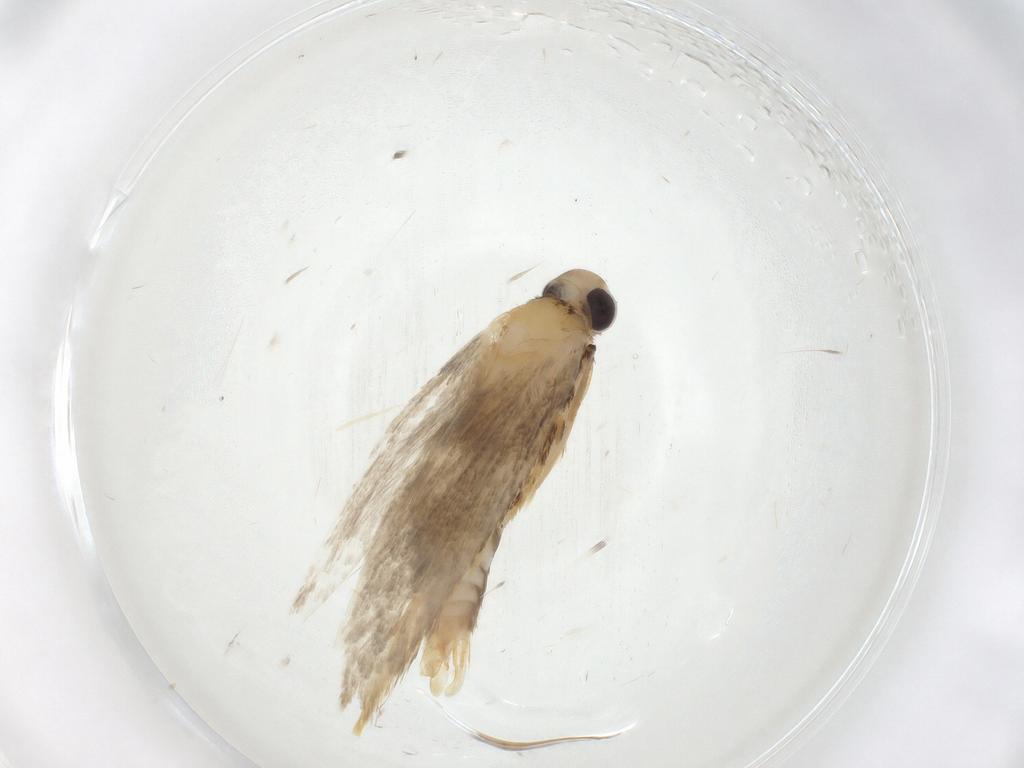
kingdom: Animalia
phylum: Arthropoda
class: Insecta
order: Lepidoptera
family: Autostichidae
